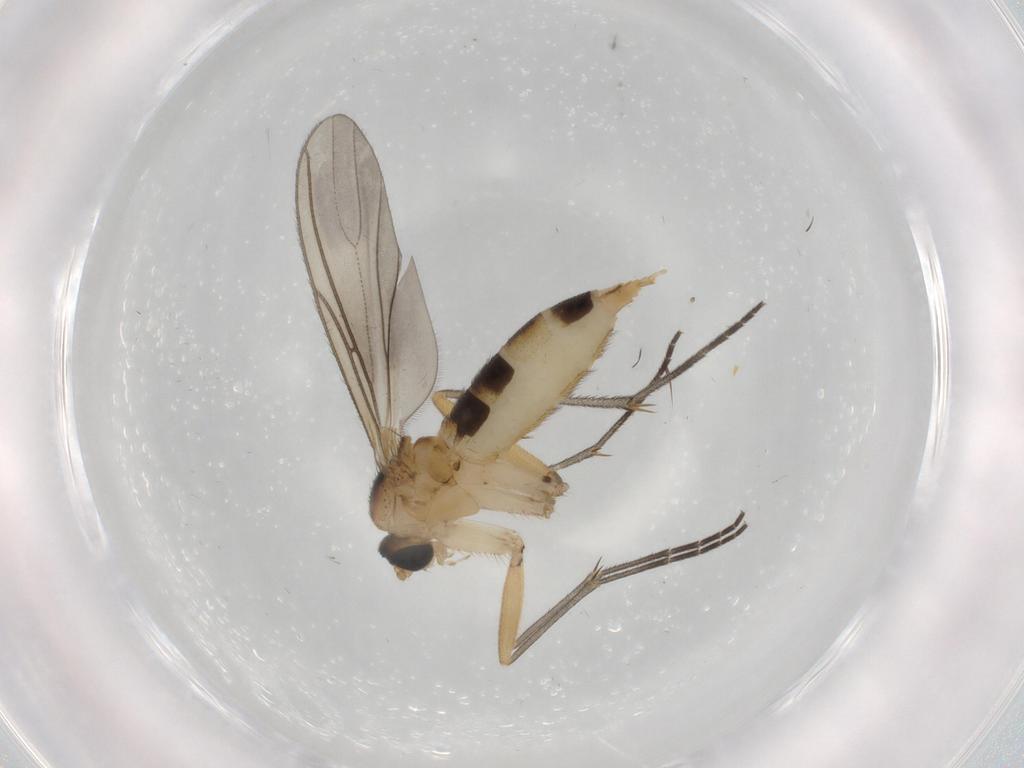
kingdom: Animalia
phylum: Arthropoda
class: Insecta
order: Diptera
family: Sciaridae
